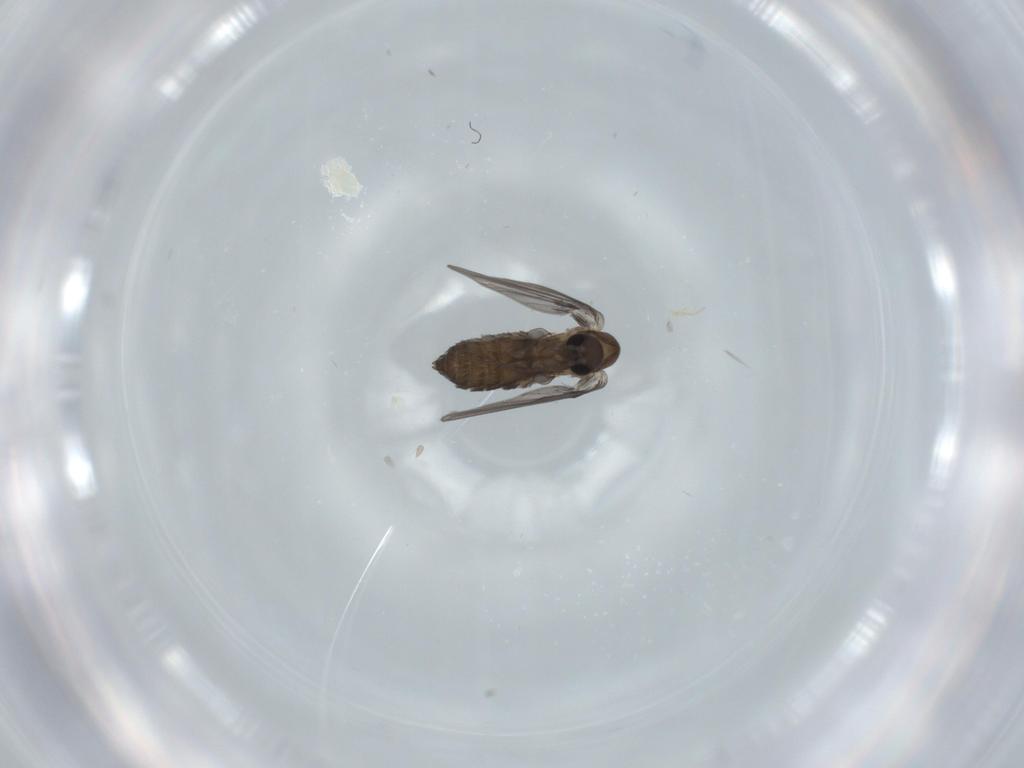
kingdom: Animalia
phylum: Arthropoda
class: Insecta
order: Diptera
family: Psychodidae
